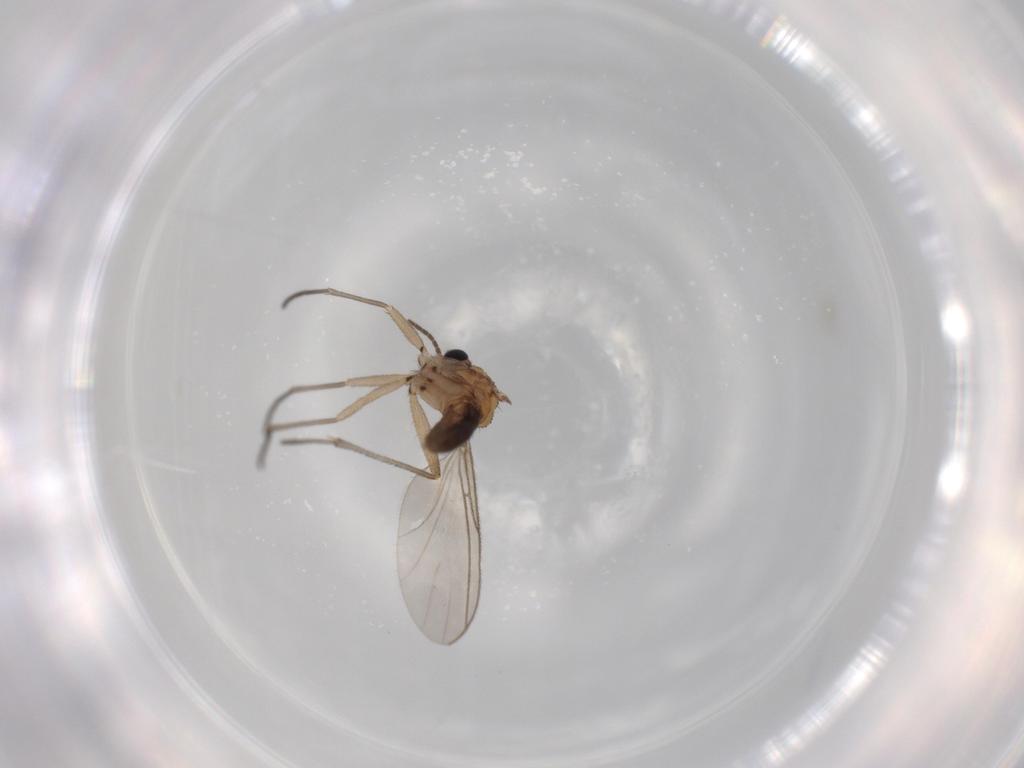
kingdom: Animalia
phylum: Arthropoda
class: Insecta
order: Diptera
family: Sciaridae
